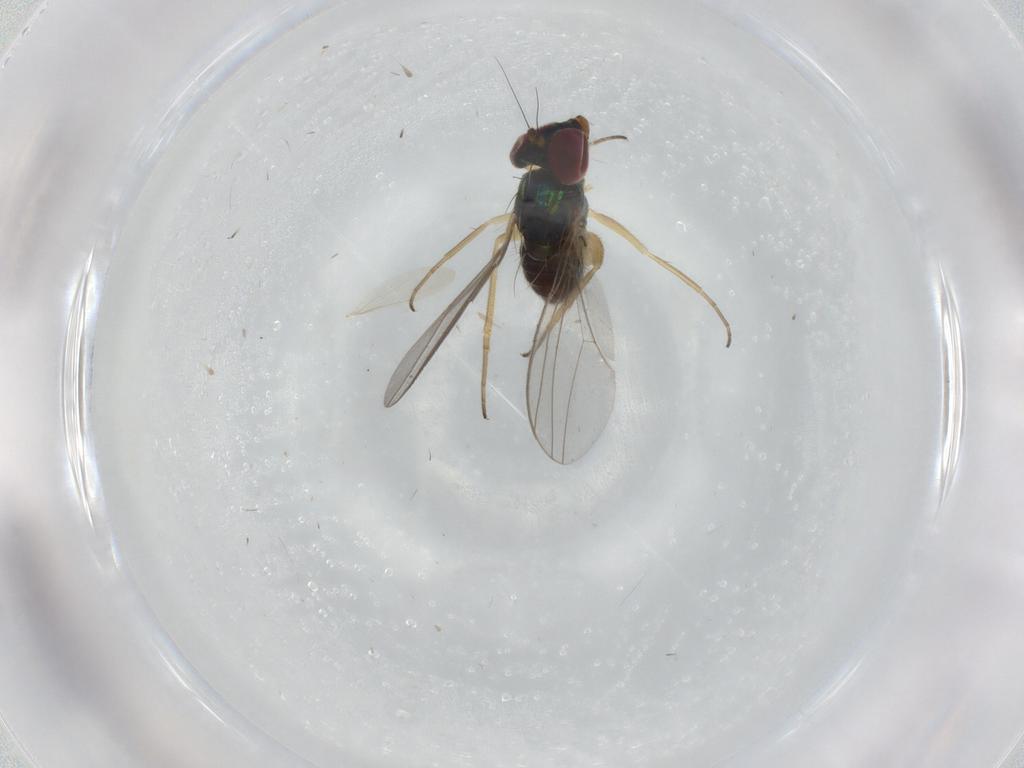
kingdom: Animalia
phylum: Arthropoda
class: Insecta
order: Diptera
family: Dolichopodidae
